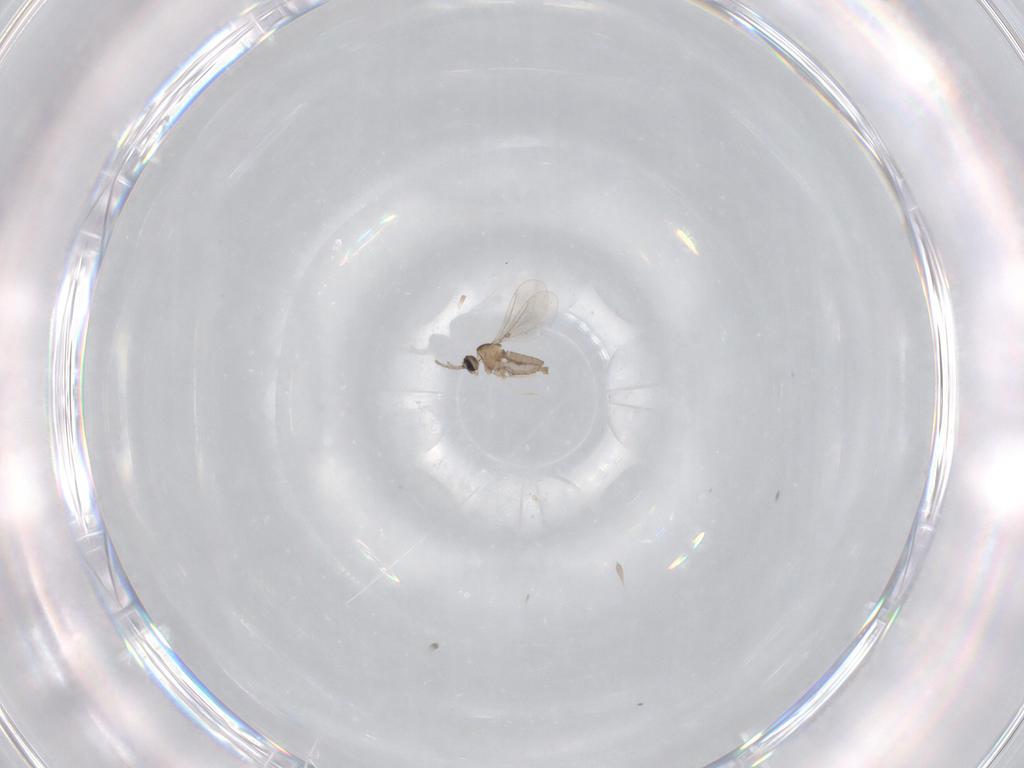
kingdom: Animalia
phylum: Arthropoda
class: Insecta
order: Diptera
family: Cecidomyiidae
